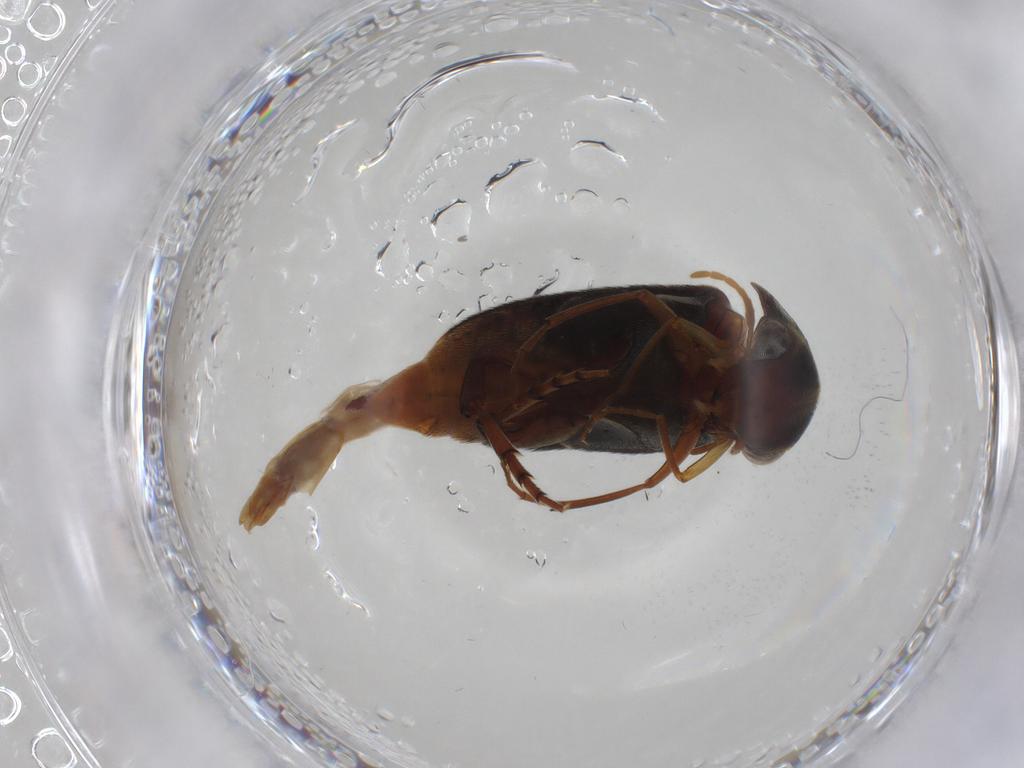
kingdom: Animalia
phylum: Arthropoda
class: Insecta
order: Coleoptera
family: Mordellidae
